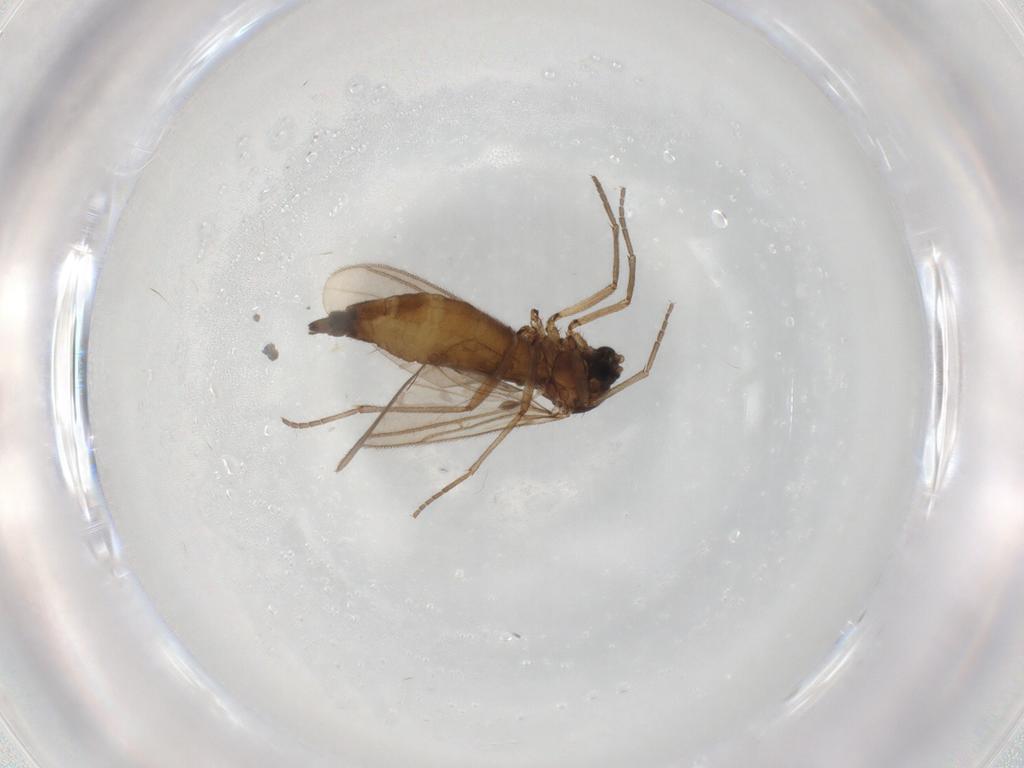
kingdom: Animalia
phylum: Arthropoda
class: Insecta
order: Diptera
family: Sciaridae
